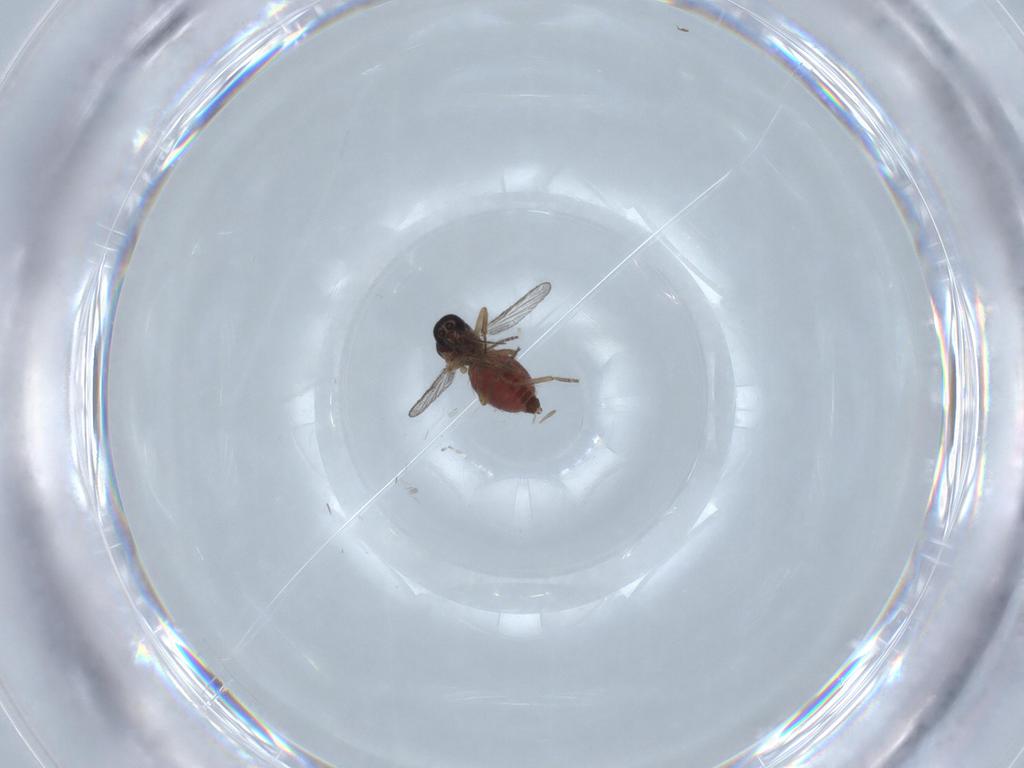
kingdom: Animalia
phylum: Arthropoda
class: Insecta
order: Diptera
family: Chironomidae
